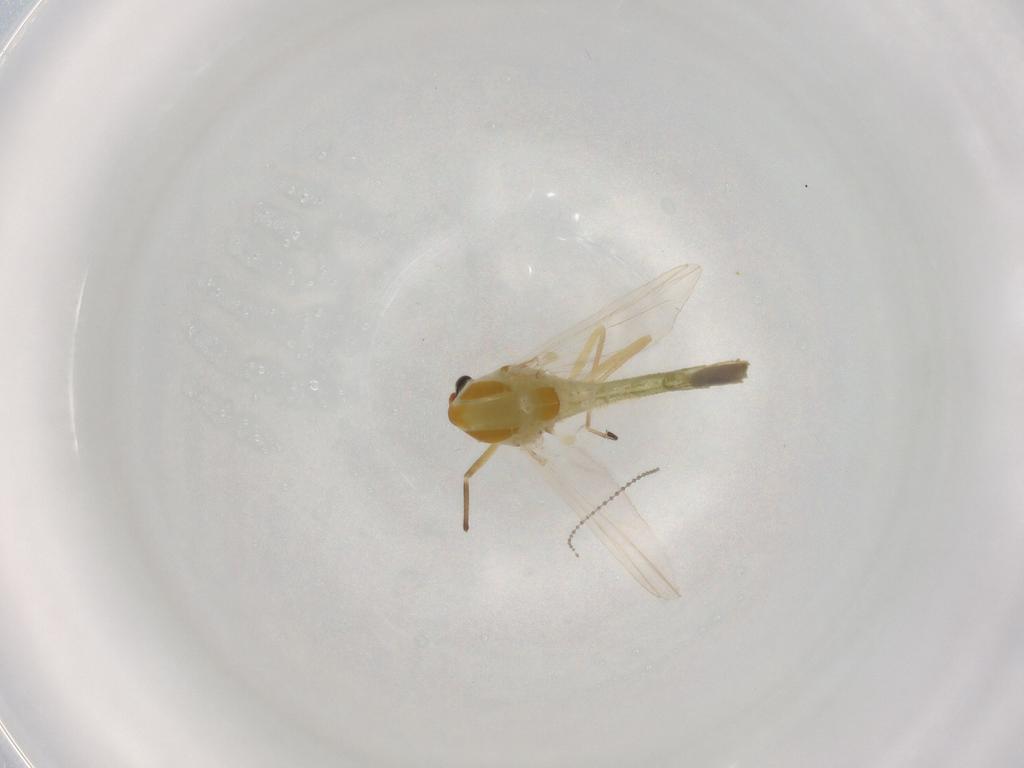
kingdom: Animalia
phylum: Arthropoda
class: Insecta
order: Diptera
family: Chironomidae
